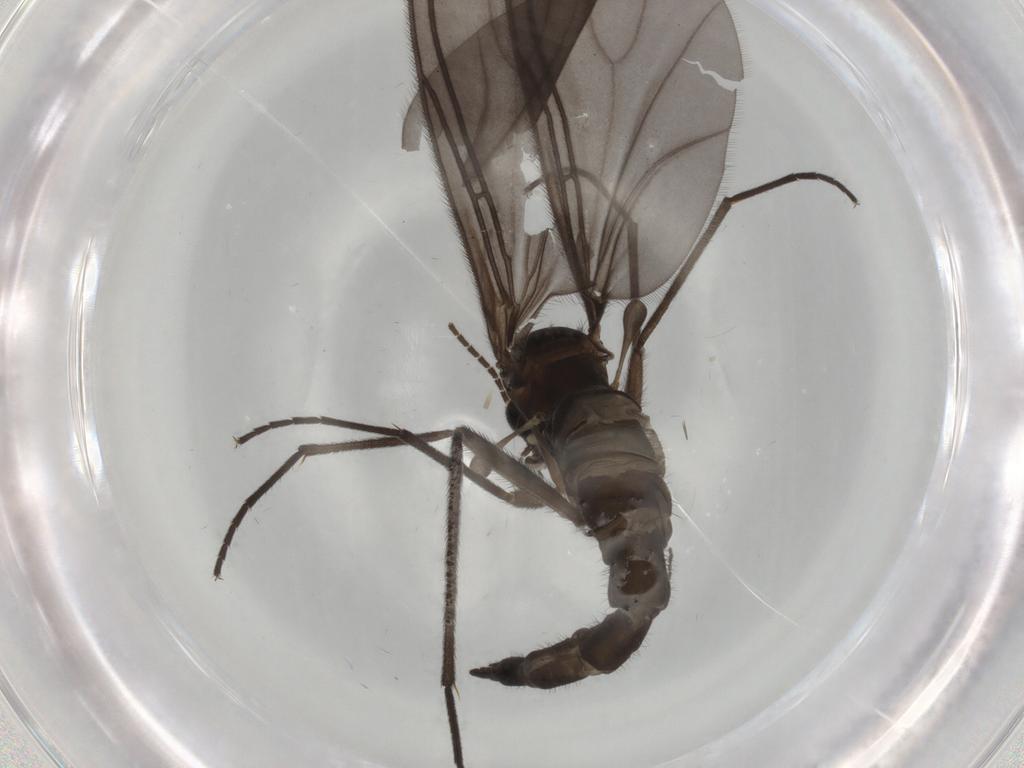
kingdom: Animalia
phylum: Arthropoda
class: Insecta
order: Diptera
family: Sciaridae
